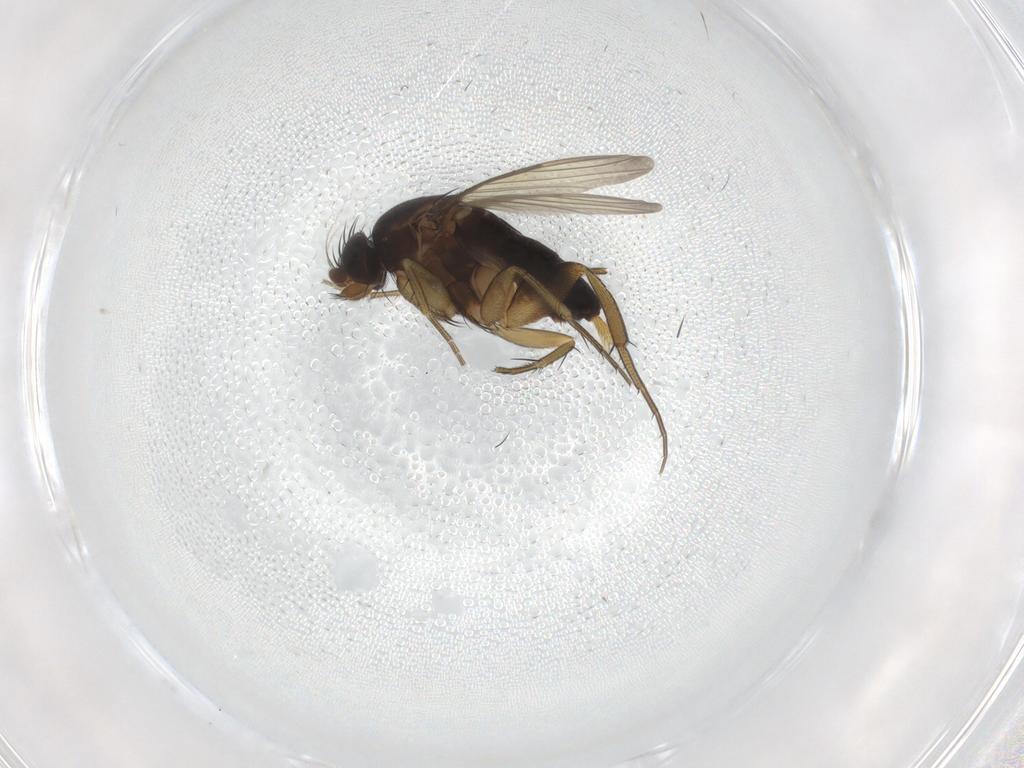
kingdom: Animalia
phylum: Arthropoda
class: Insecta
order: Diptera
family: Phoridae
